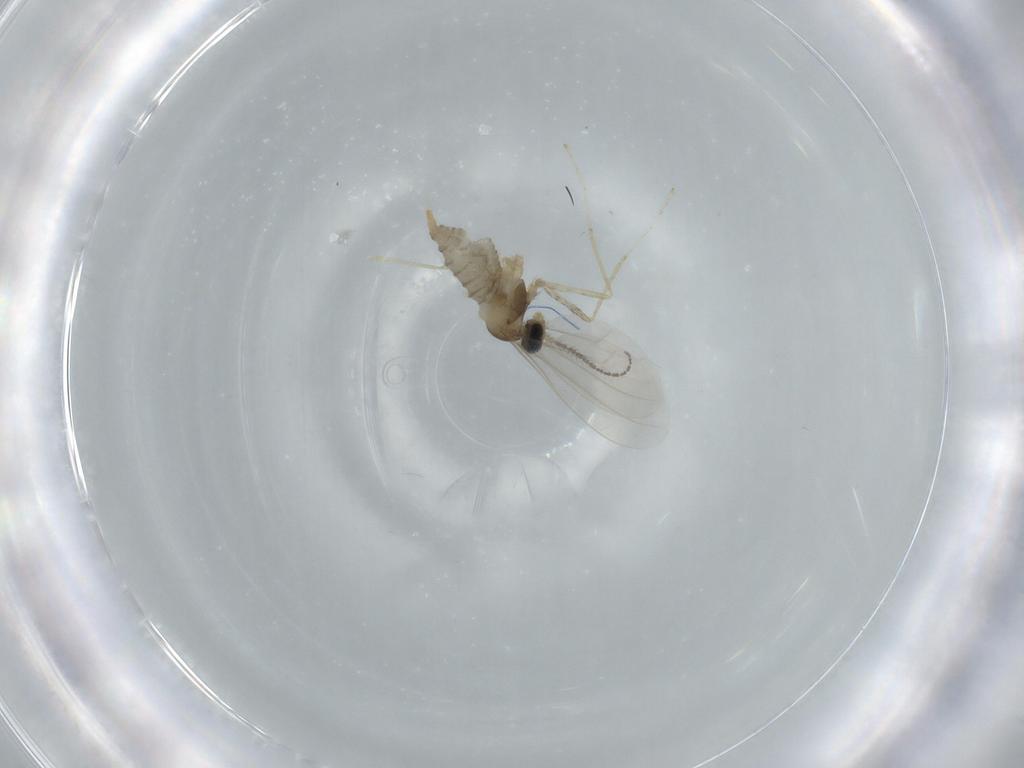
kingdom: Animalia
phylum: Arthropoda
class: Insecta
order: Diptera
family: Cecidomyiidae
